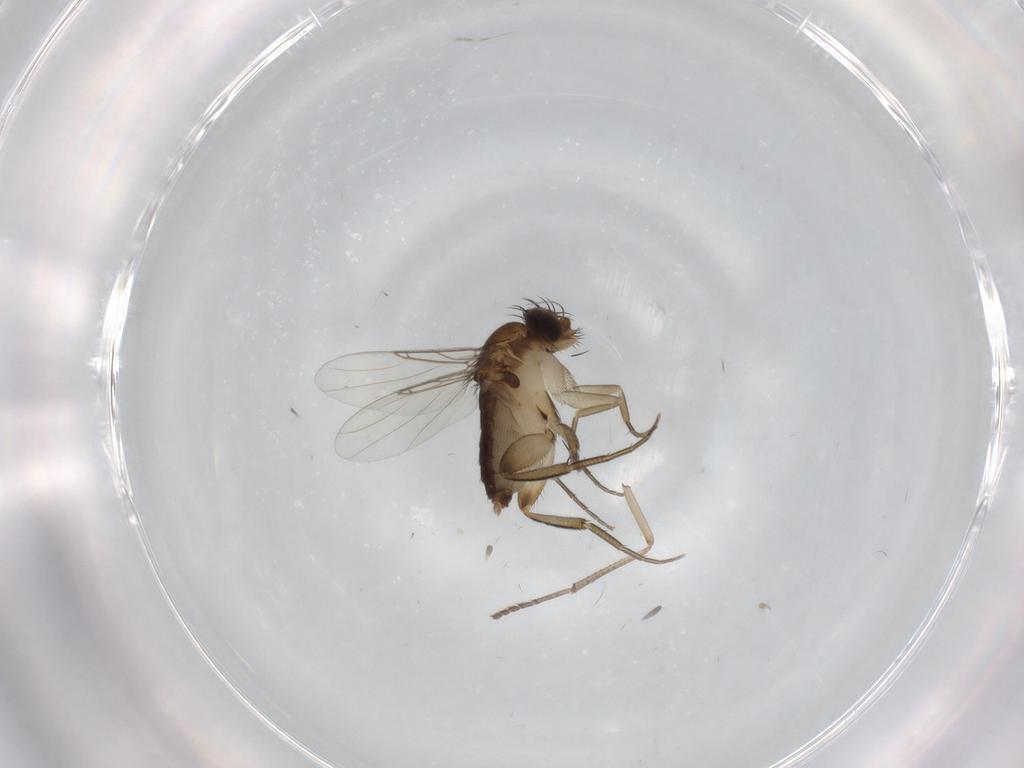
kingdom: Animalia
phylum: Arthropoda
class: Insecta
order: Diptera
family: Phoridae
